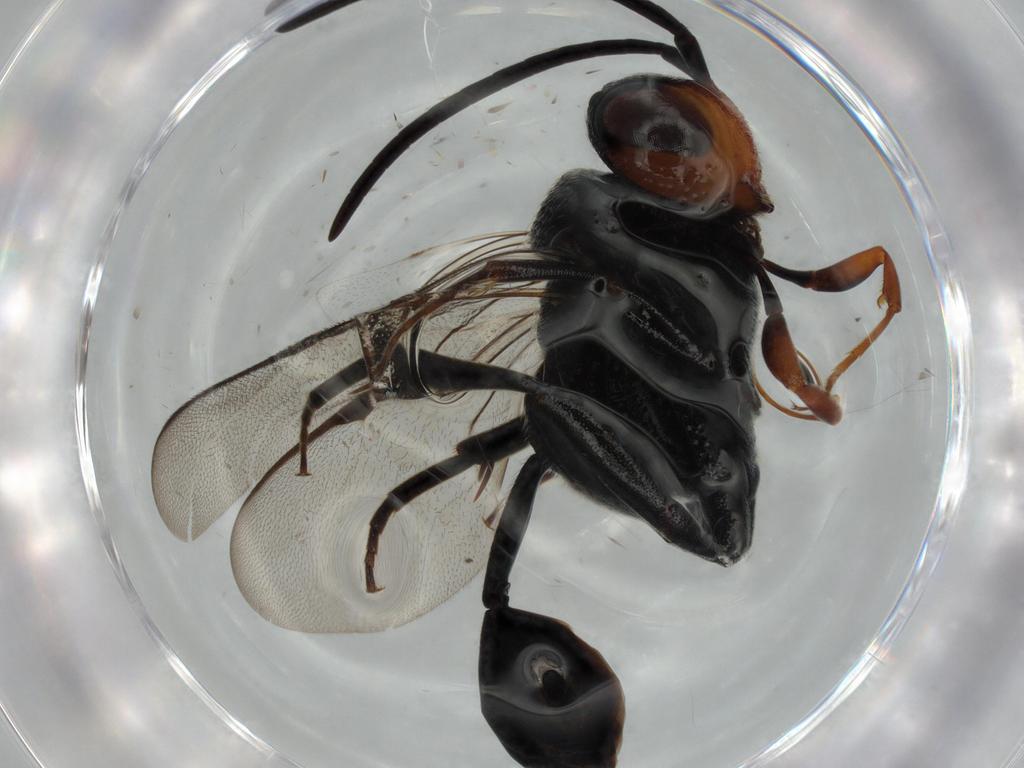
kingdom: Animalia
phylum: Arthropoda
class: Insecta
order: Hymenoptera
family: Evaniidae
